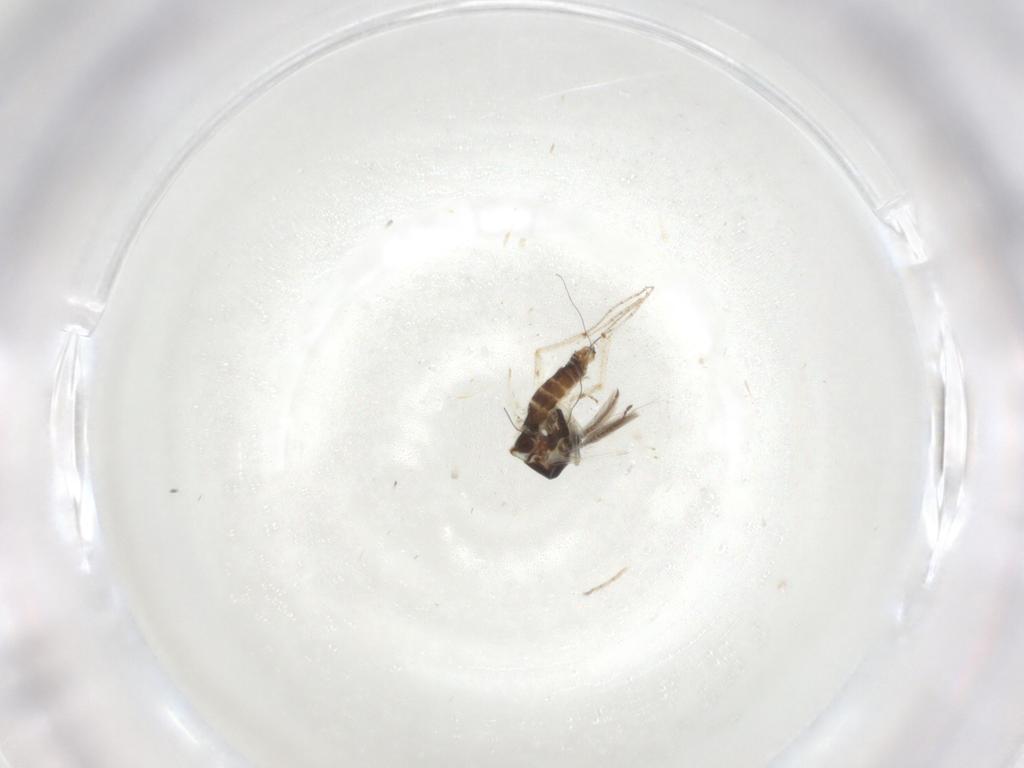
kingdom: Animalia
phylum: Arthropoda
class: Insecta
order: Diptera
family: Ceratopogonidae
